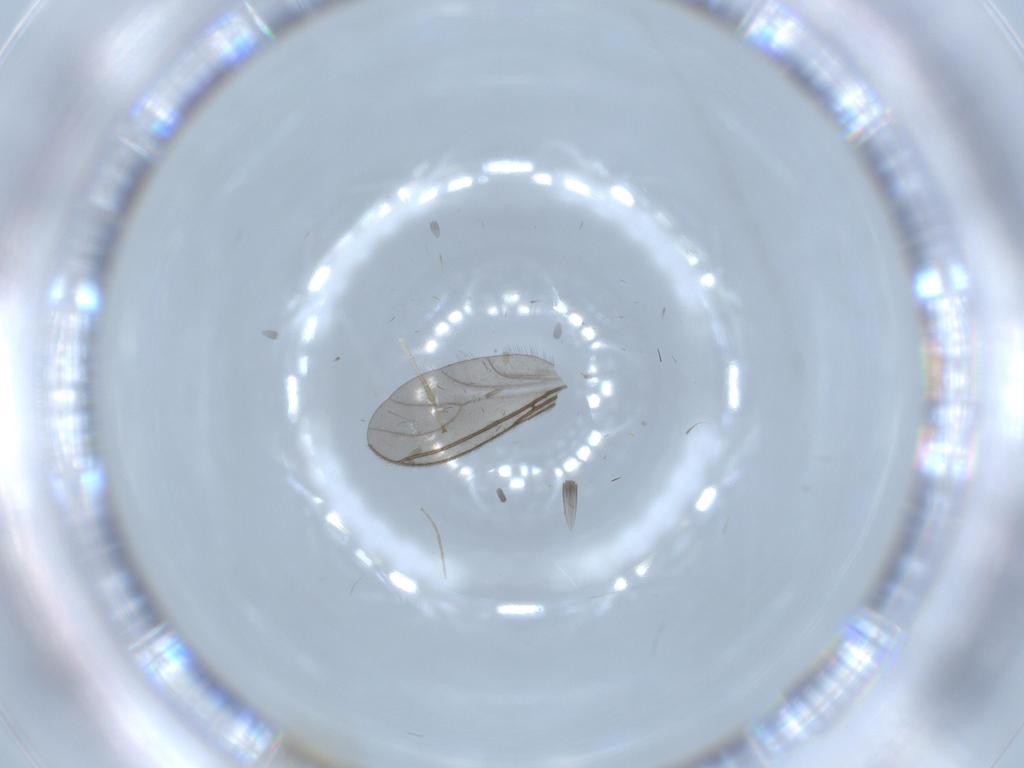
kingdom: Animalia
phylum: Arthropoda
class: Insecta
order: Diptera
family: Sciaridae
